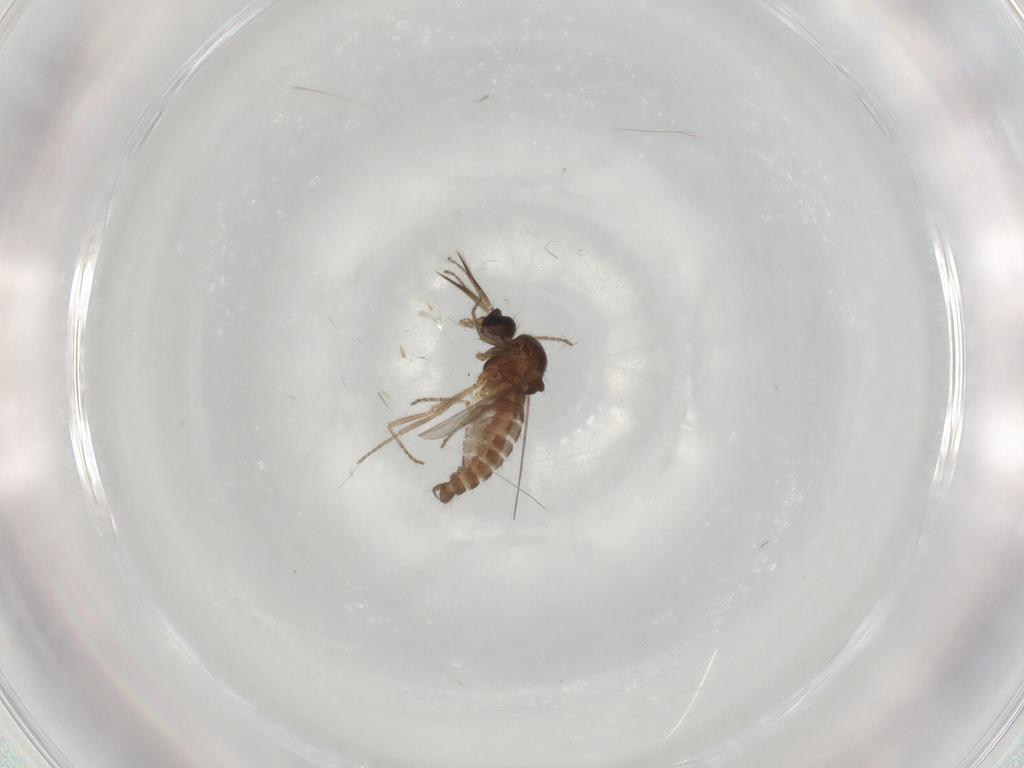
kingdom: Animalia
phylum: Arthropoda
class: Insecta
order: Diptera
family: Ceratopogonidae
